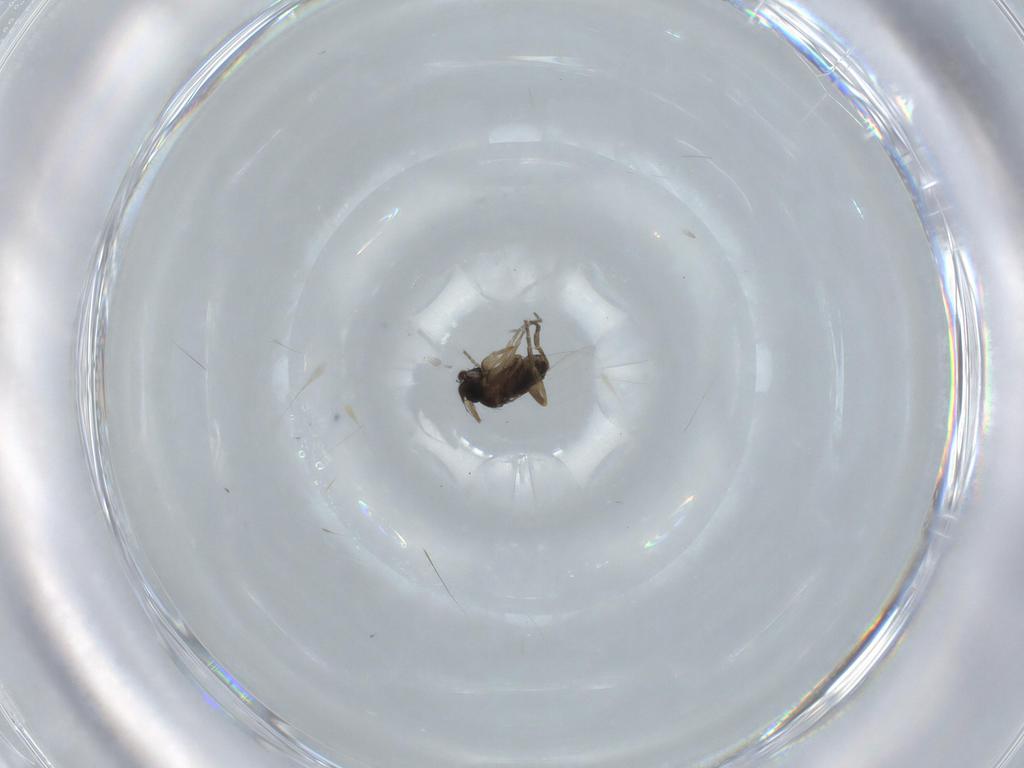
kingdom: Animalia
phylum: Arthropoda
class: Insecta
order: Diptera
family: Phoridae
